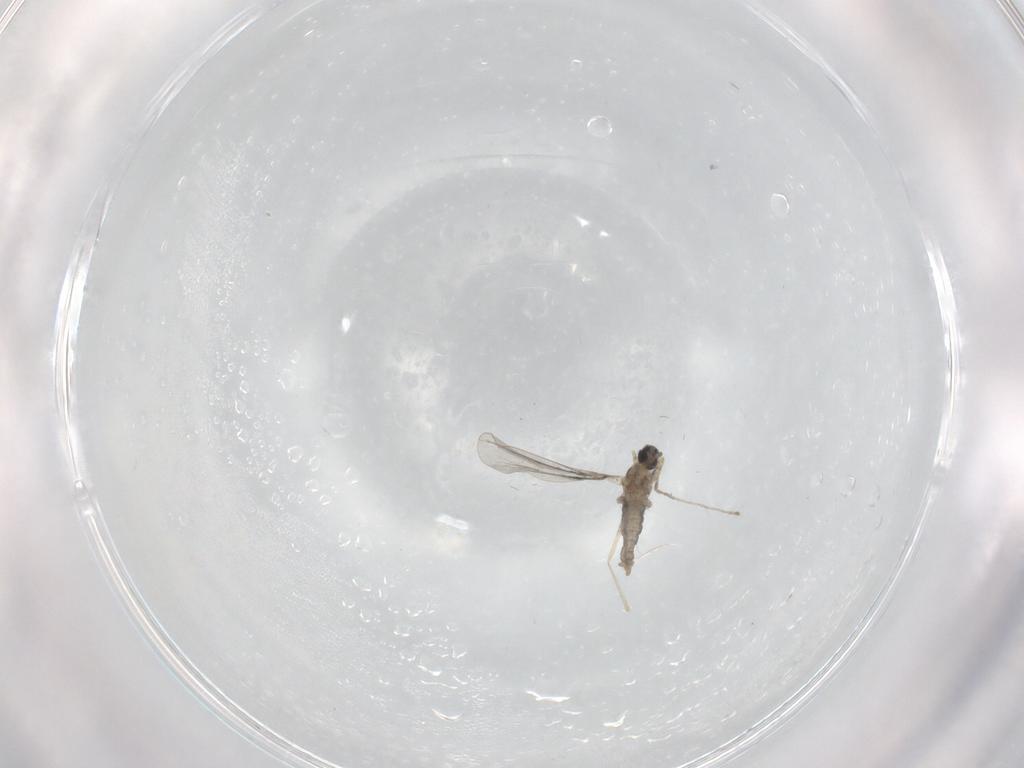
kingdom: Animalia
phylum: Arthropoda
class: Insecta
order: Diptera
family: Cecidomyiidae
